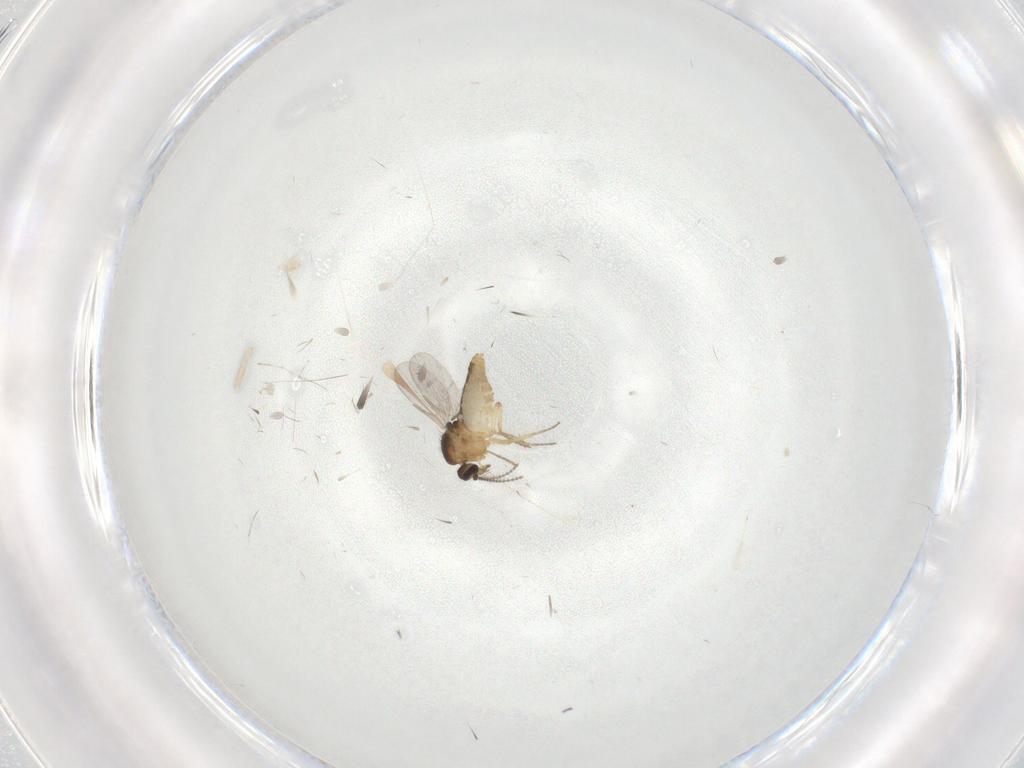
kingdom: Animalia
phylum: Arthropoda
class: Insecta
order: Diptera
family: Ceratopogonidae
